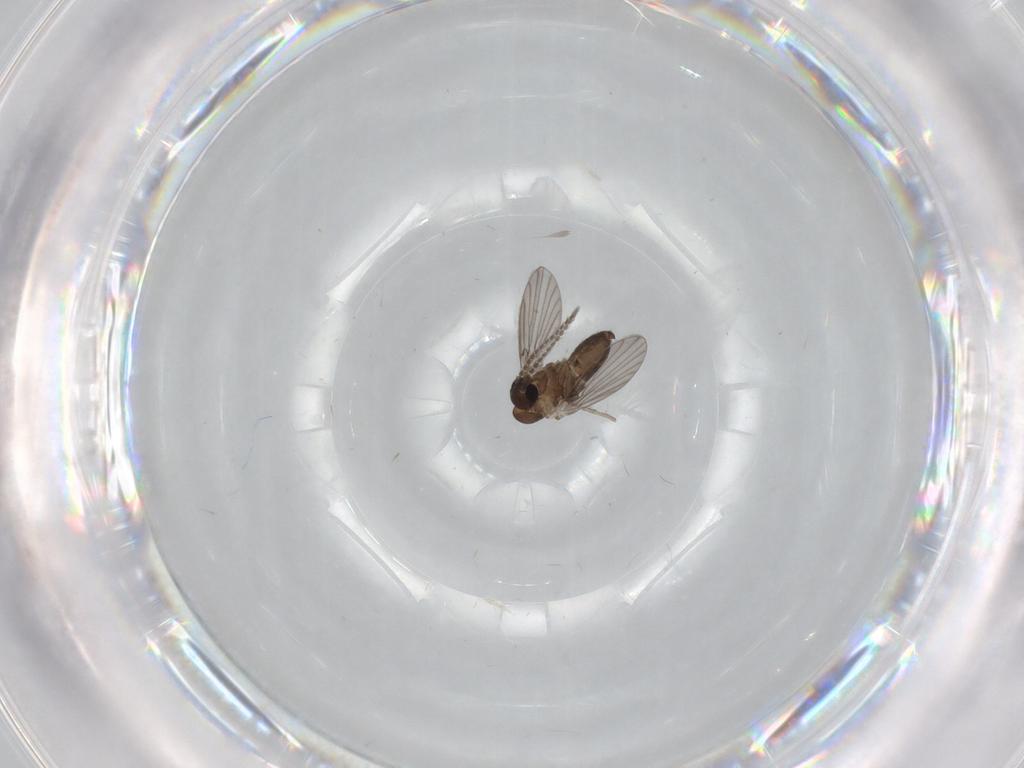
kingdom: Animalia
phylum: Arthropoda
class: Insecta
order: Diptera
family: Psychodidae
